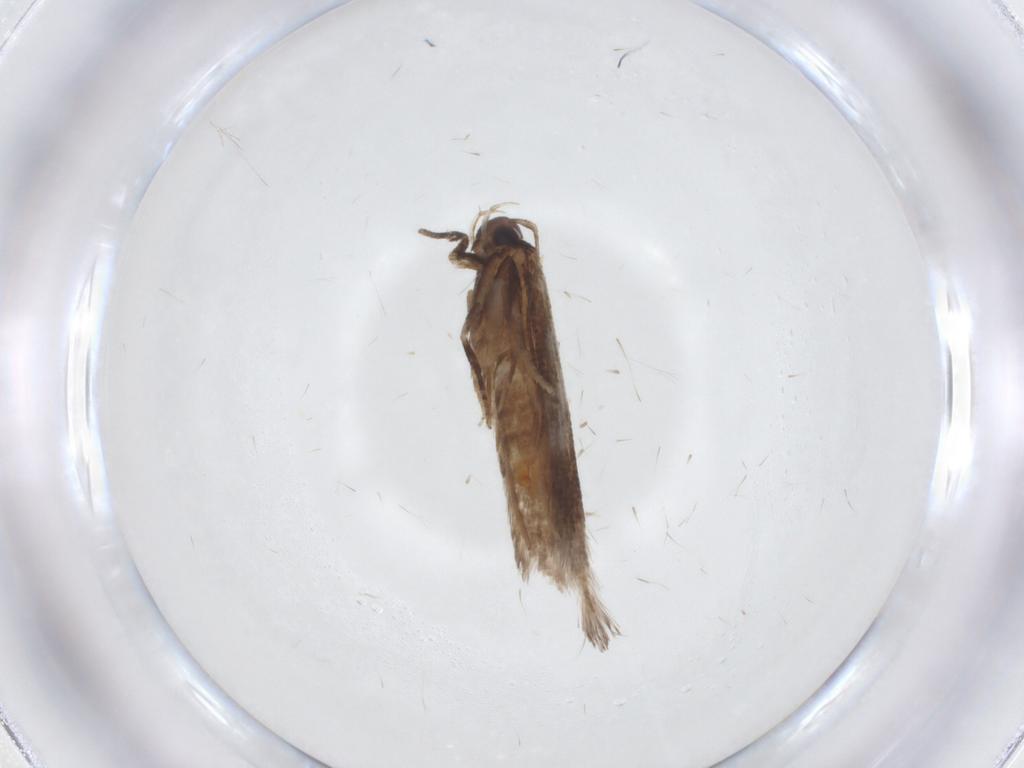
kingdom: Animalia
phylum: Arthropoda
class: Insecta
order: Lepidoptera
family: Gelechiidae
